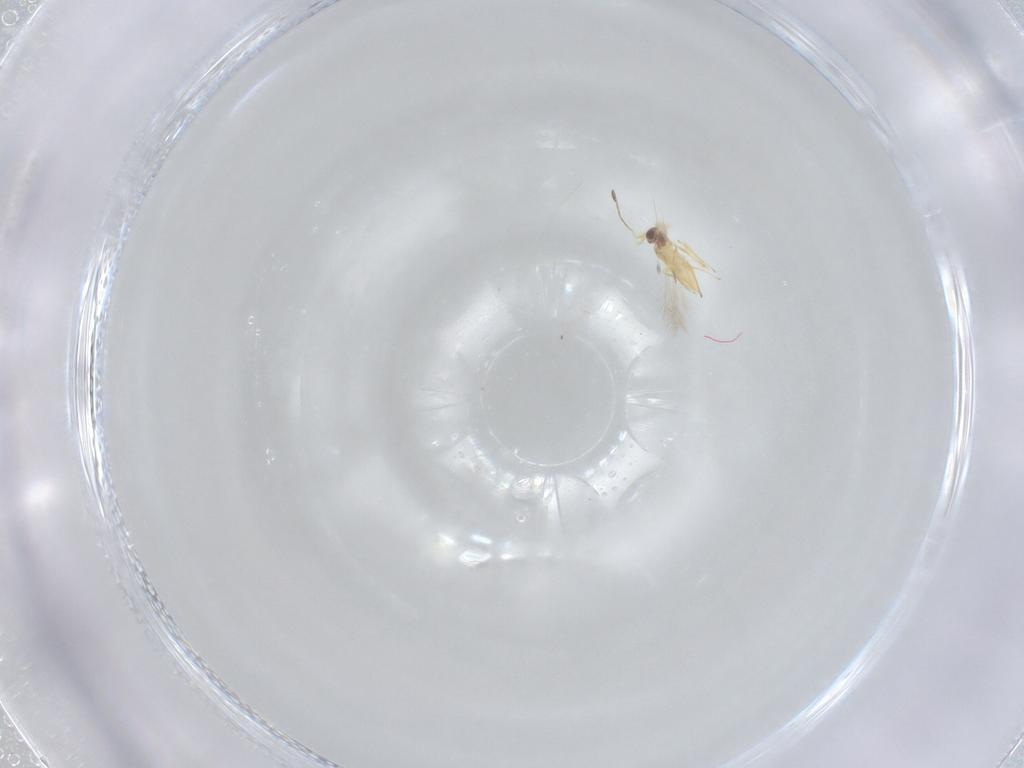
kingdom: Animalia
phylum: Arthropoda
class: Insecta
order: Hymenoptera
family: Mymaridae
